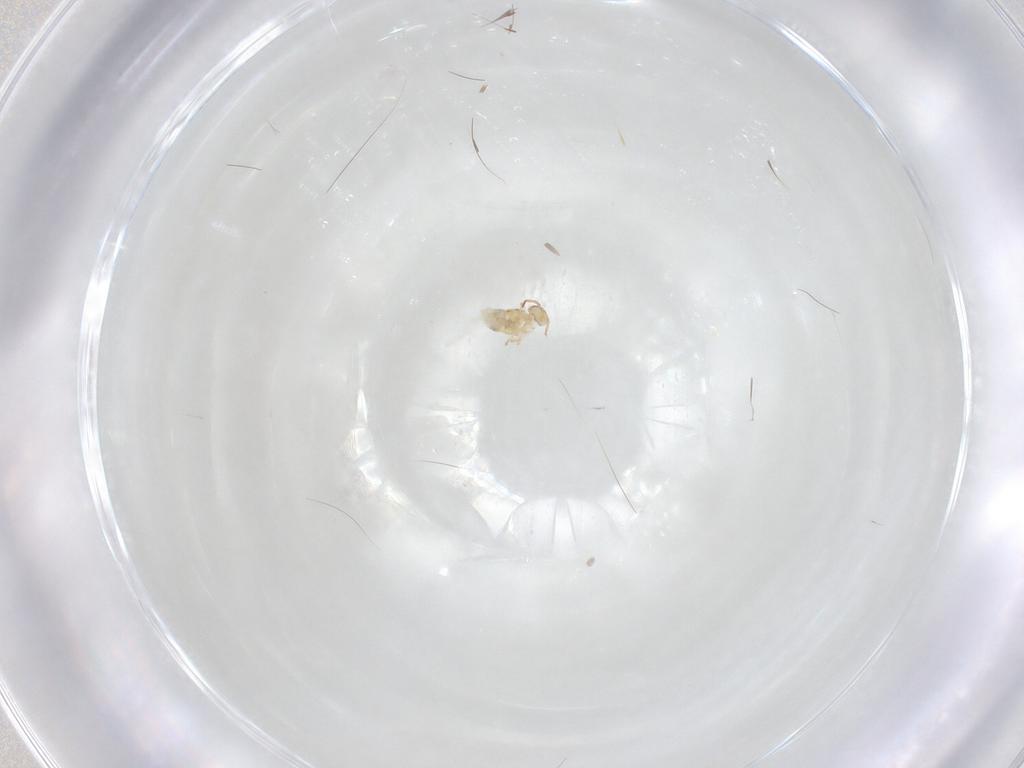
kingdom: Animalia
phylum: Arthropoda
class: Collembola
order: Symphypleona
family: Bourletiellidae
